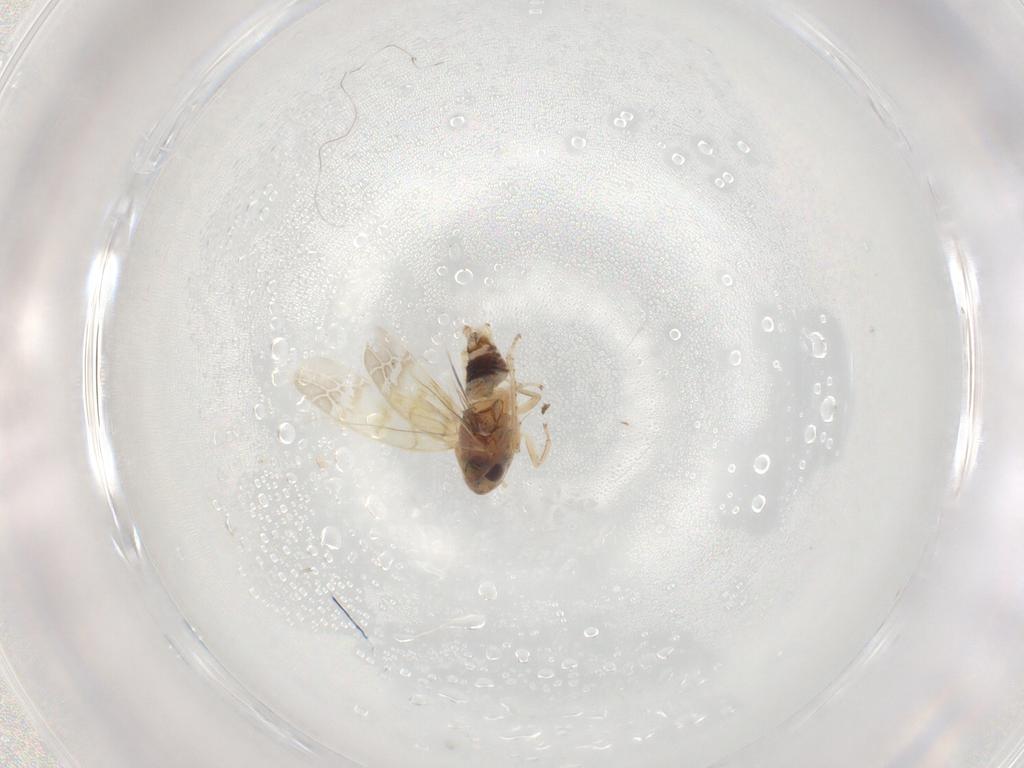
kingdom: Animalia
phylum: Arthropoda
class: Insecta
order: Hemiptera
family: Cicadellidae
